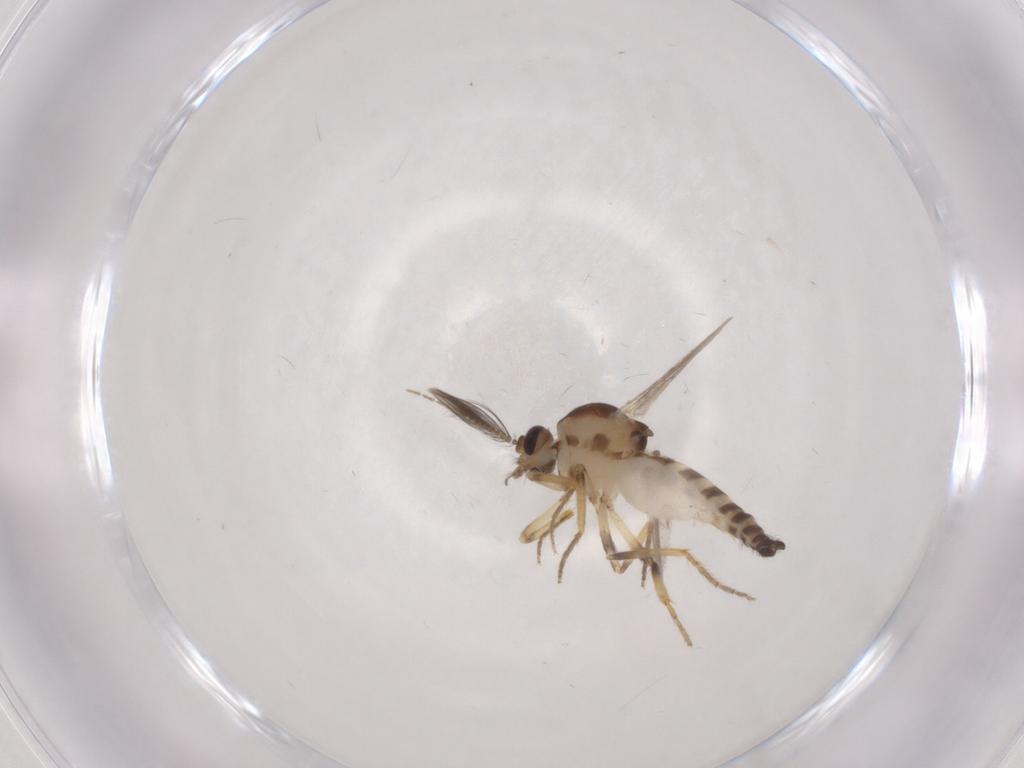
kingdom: Animalia
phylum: Arthropoda
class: Insecta
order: Diptera
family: Ceratopogonidae
